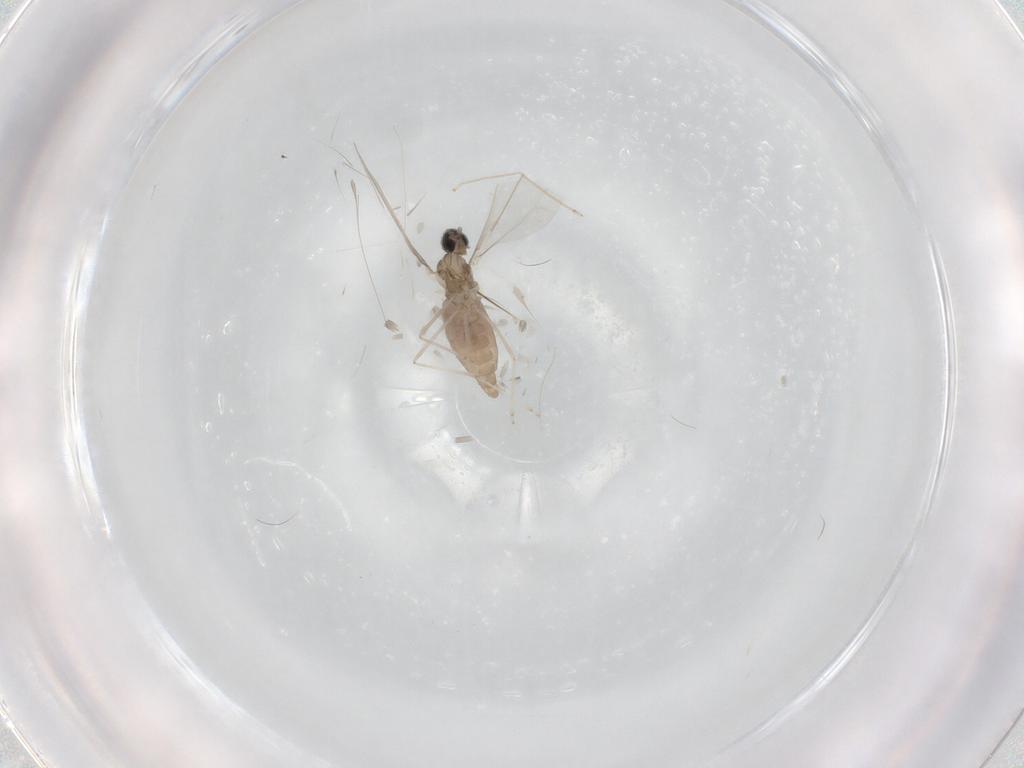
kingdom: Animalia
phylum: Arthropoda
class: Insecta
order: Diptera
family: Cecidomyiidae
